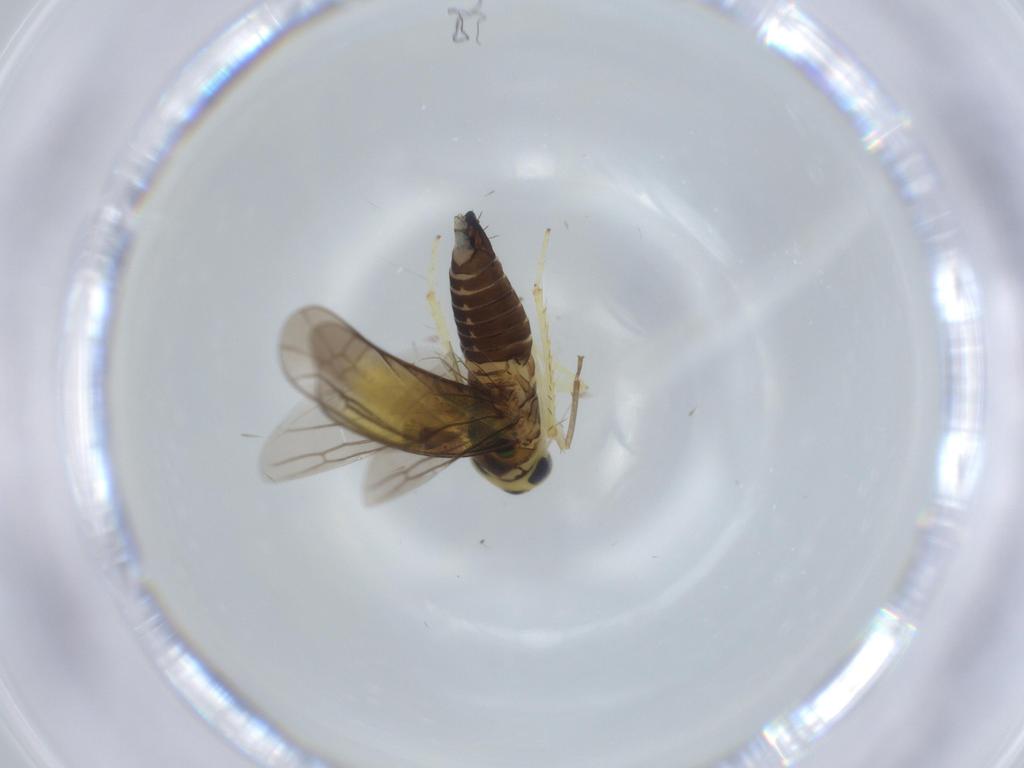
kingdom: Animalia
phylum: Arthropoda
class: Insecta
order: Hemiptera
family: Cicadellidae
